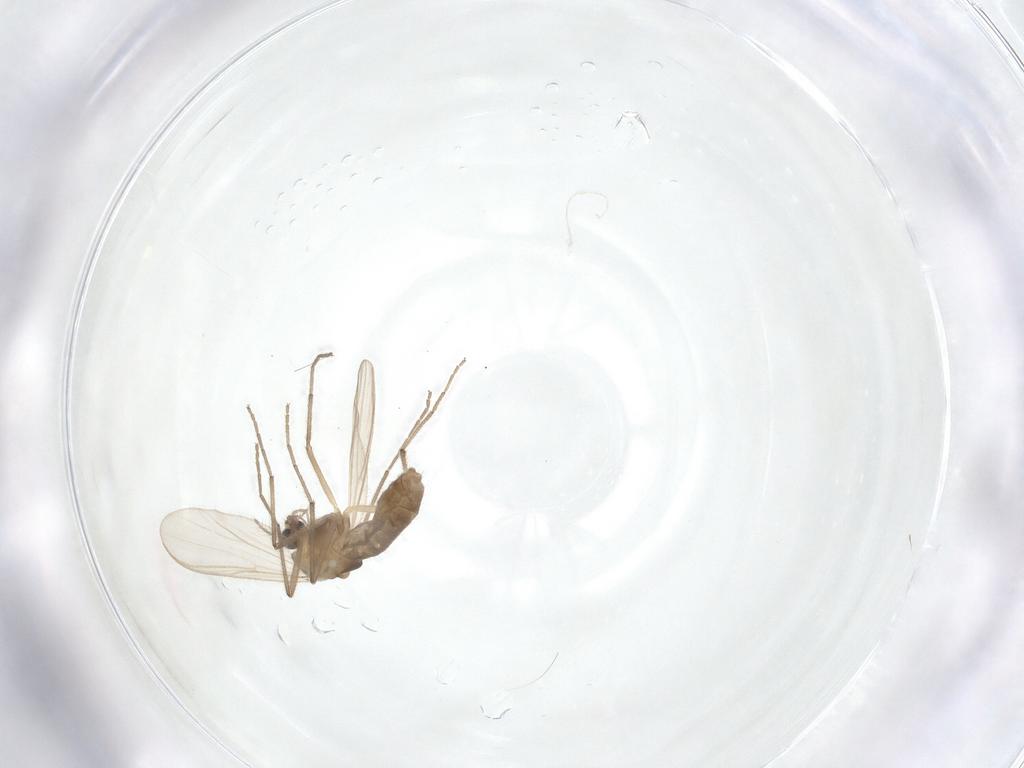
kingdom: Animalia
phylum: Arthropoda
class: Insecta
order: Diptera
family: Chironomidae
